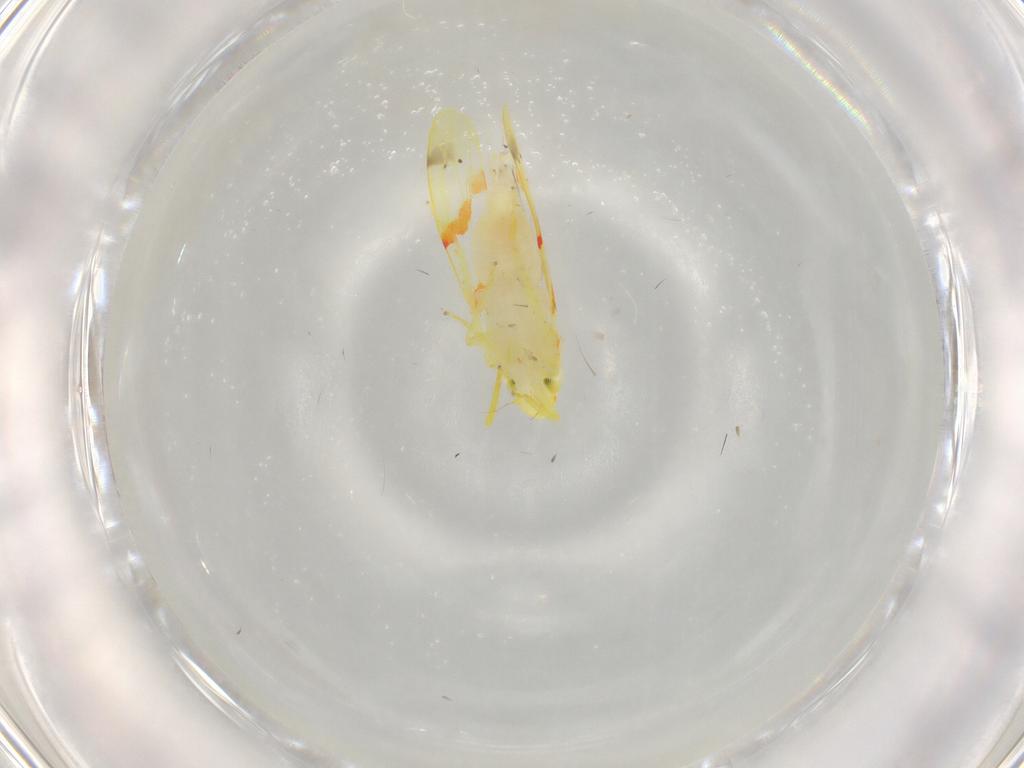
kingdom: Animalia
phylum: Arthropoda
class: Insecta
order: Hemiptera
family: Cicadellidae
